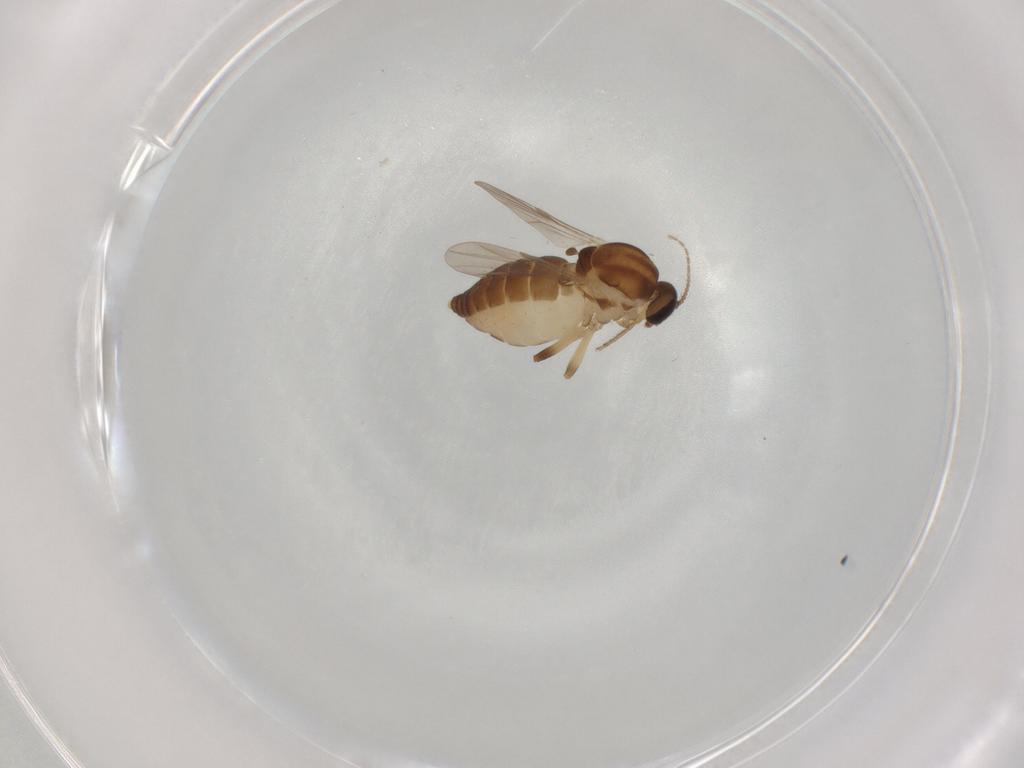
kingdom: Animalia
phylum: Arthropoda
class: Insecta
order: Diptera
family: Ceratopogonidae
